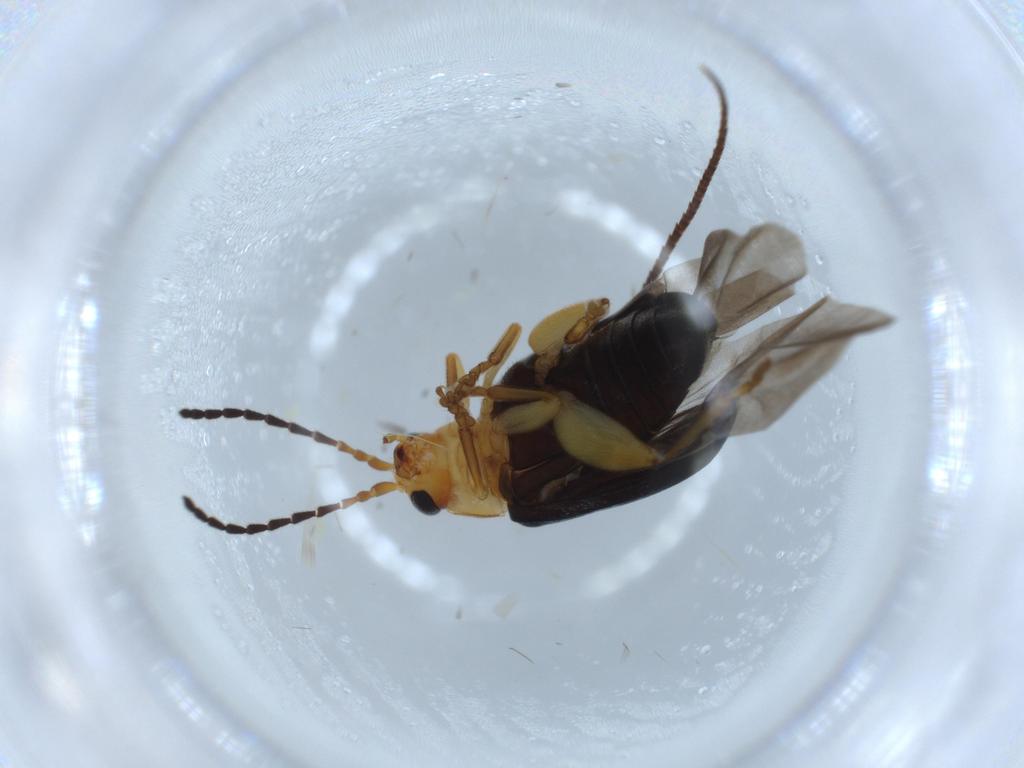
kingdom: Animalia
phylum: Arthropoda
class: Insecta
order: Coleoptera
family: Chrysomelidae
